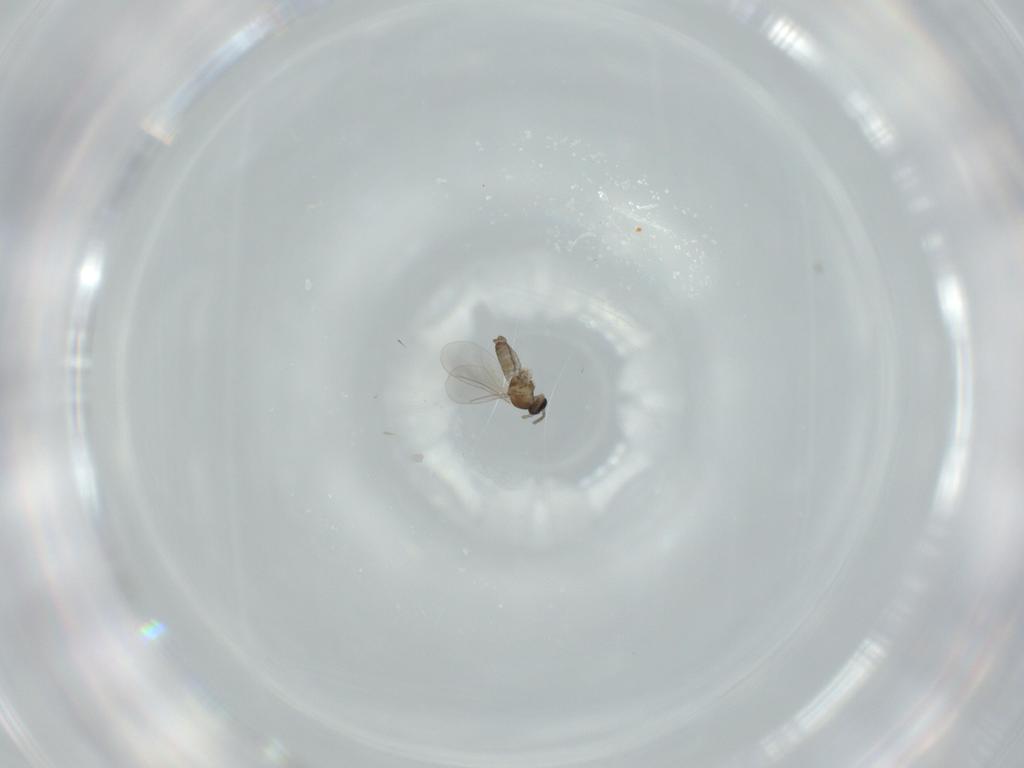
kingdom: Animalia
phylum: Arthropoda
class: Insecta
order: Diptera
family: Cecidomyiidae
